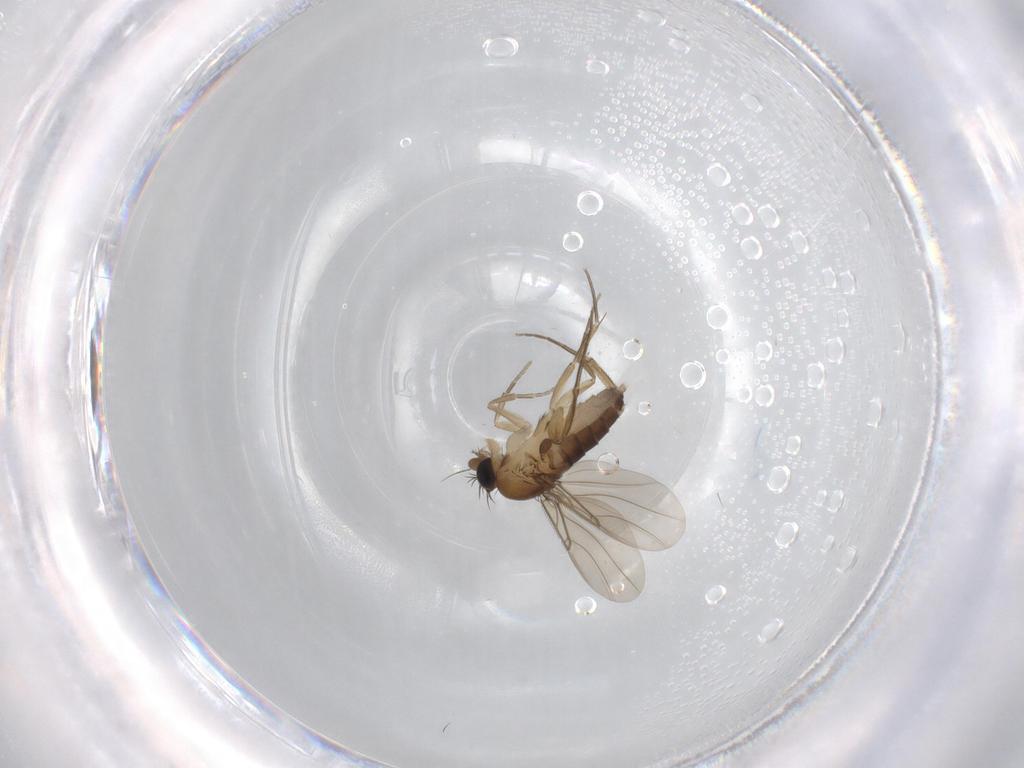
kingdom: Animalia
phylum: Arthropoda
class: Insecta
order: Diptera
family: Phoridae
